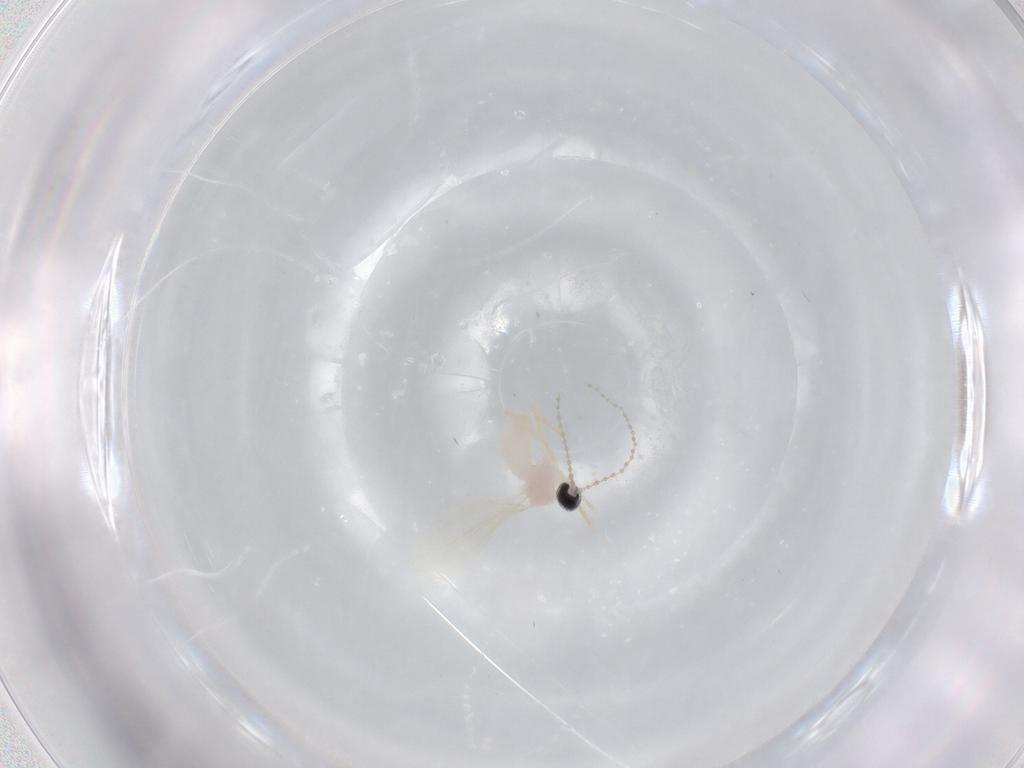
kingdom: Animalia
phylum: Arthropoda
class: Insecta
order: Diptera
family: Cecidomyiidae
